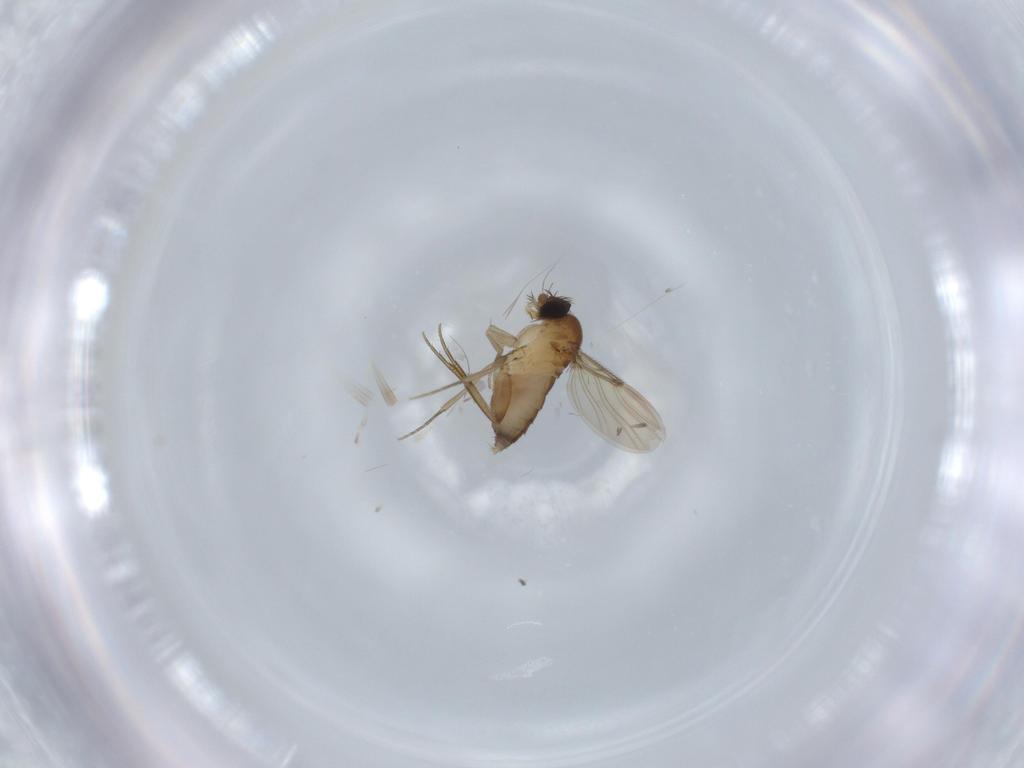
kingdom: Animalia
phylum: Arthropoda
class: Insecta
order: Diptera
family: Phoridae
